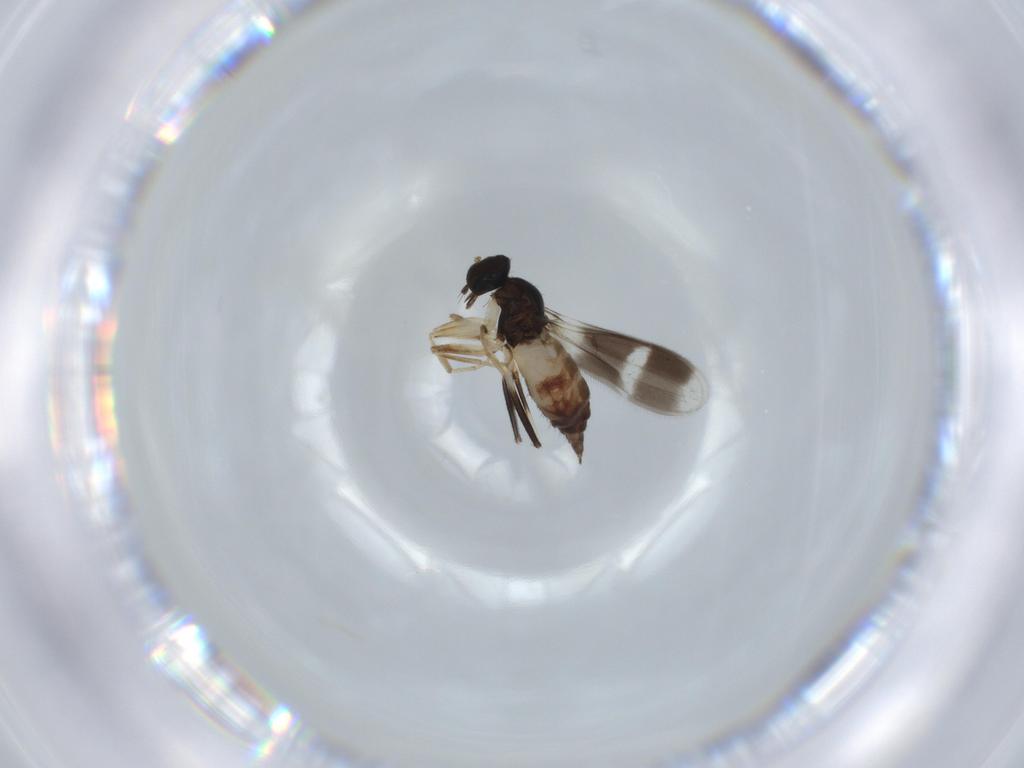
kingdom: Animalia
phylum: Arthropoda
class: Insecta
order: Diptera
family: Hybotidae
